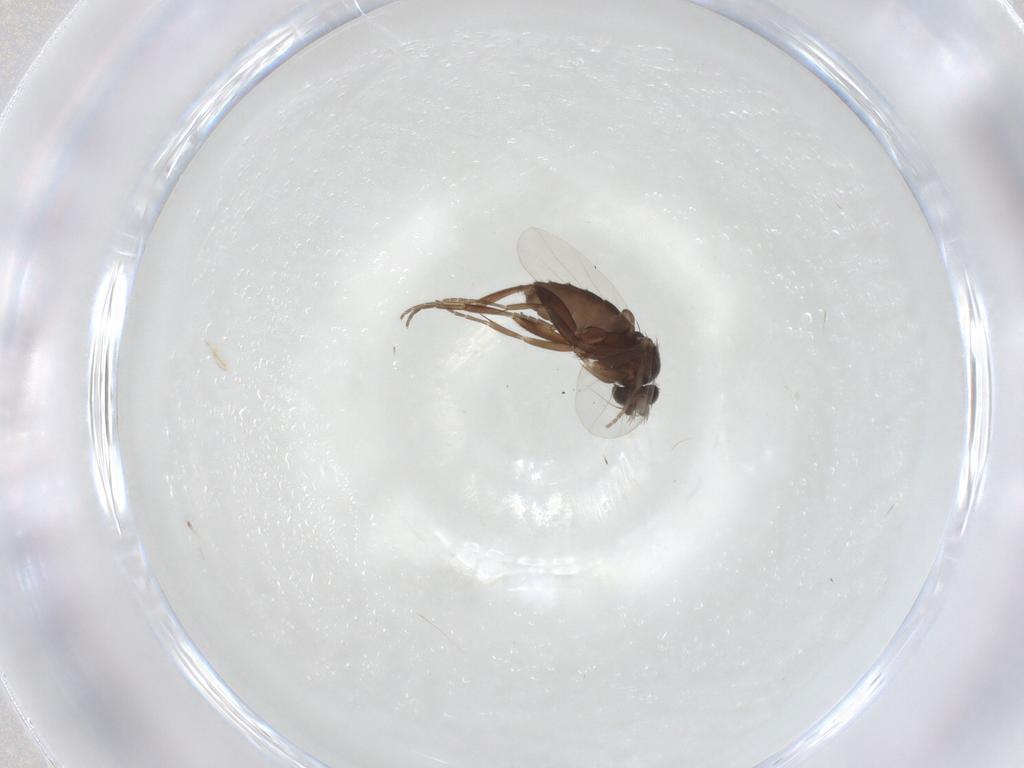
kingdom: Animalia
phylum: Arthropoda
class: Insecta
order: Diptera
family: Phoridae
